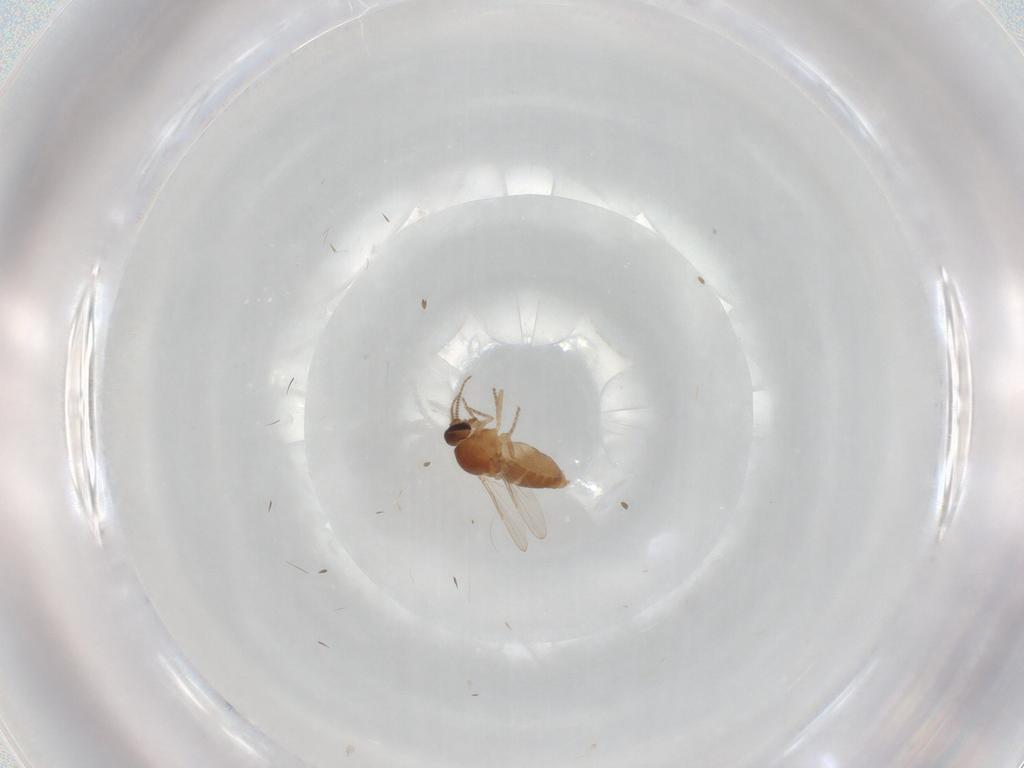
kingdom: Animalia
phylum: Arthropoda
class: Insecta
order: Diptera
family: Ceratopogonidae
